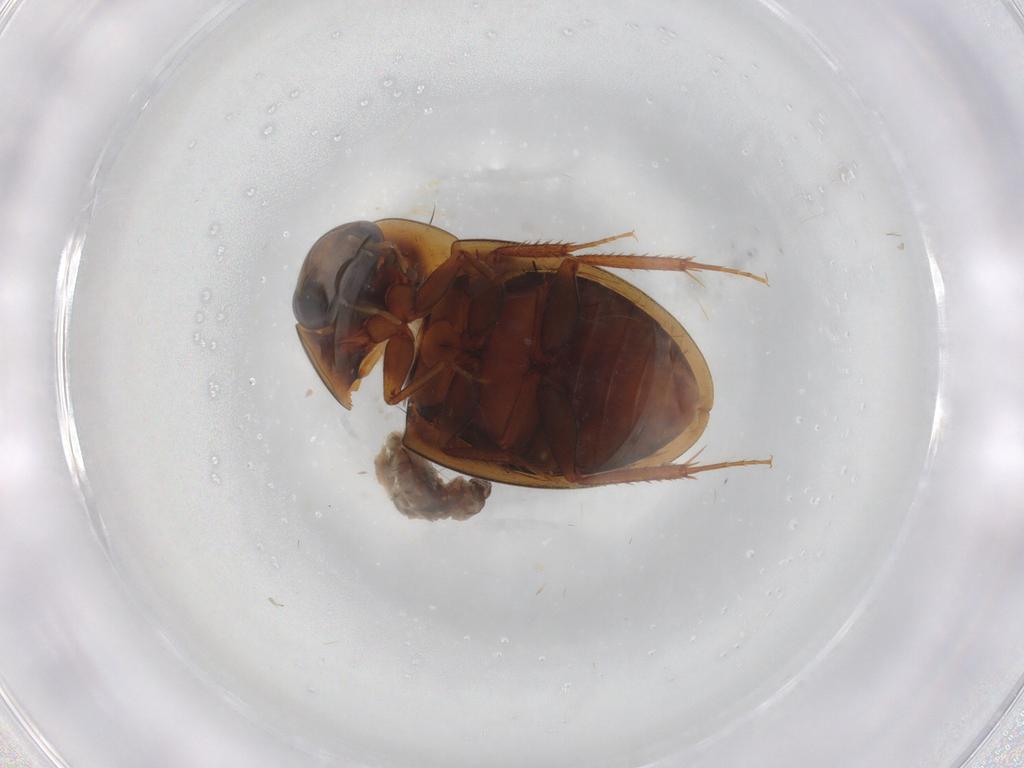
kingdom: Animalia
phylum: Arthropoda
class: Insecta
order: Coleoptera
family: Hydrophilidae
